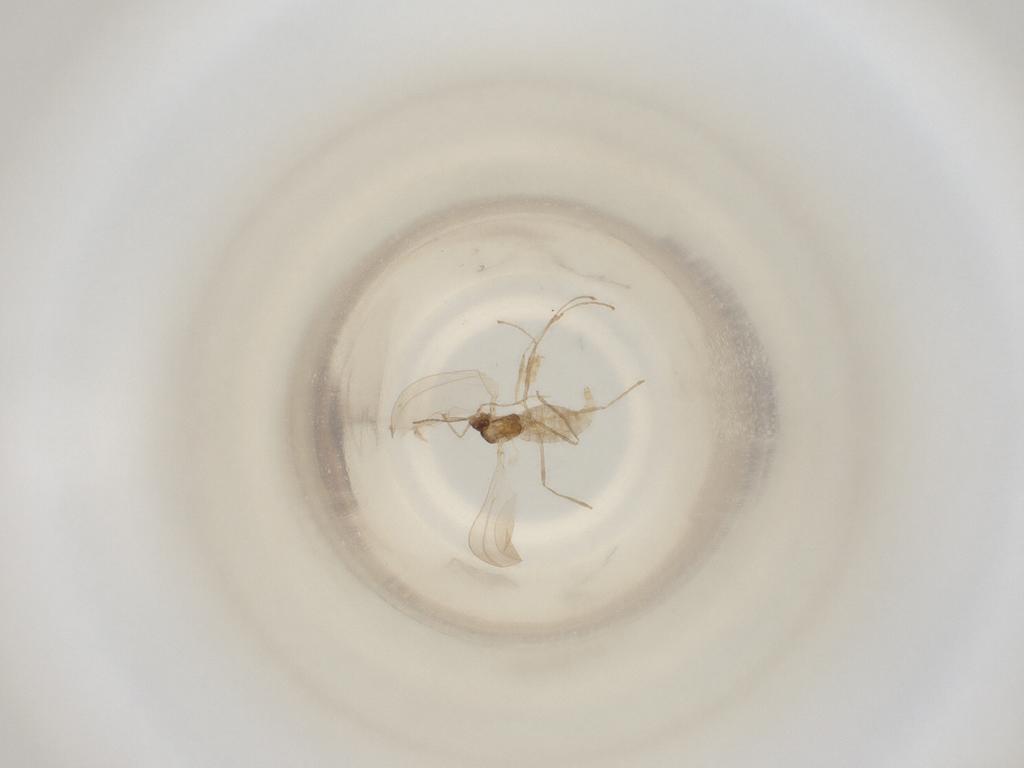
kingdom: Animalia
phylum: Arthropoda
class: Insecta
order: Diptera
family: Cecidomyiidae
